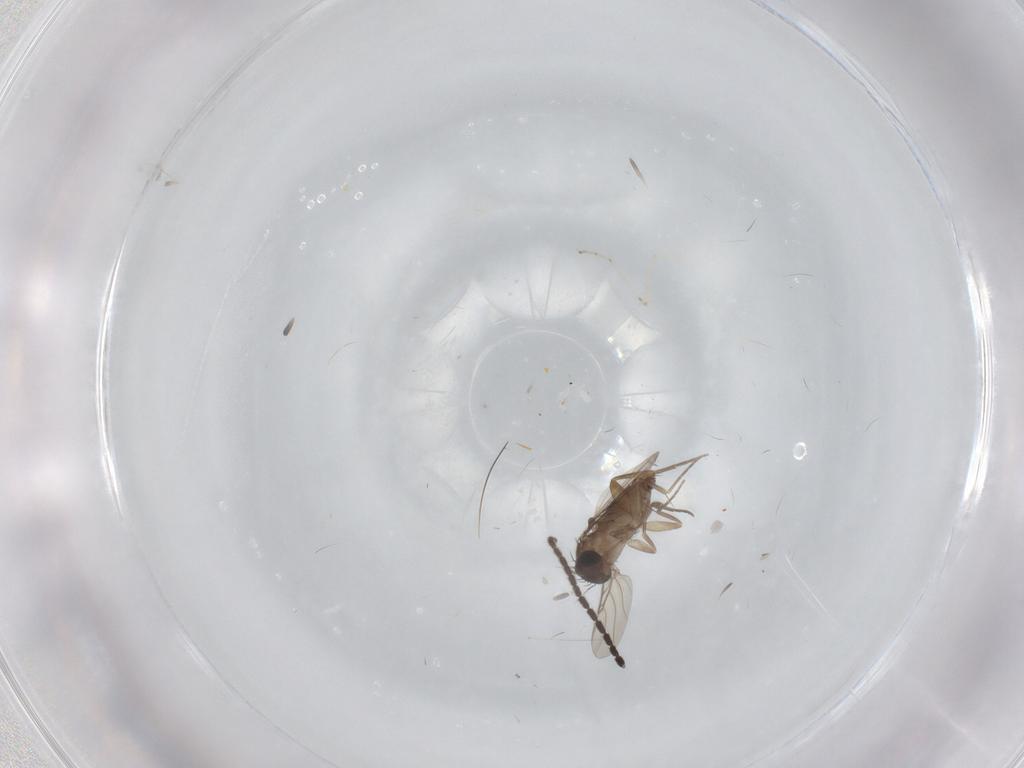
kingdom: Animalia
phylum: Arthropoda
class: Insecta
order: Diptera
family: Phoridae
